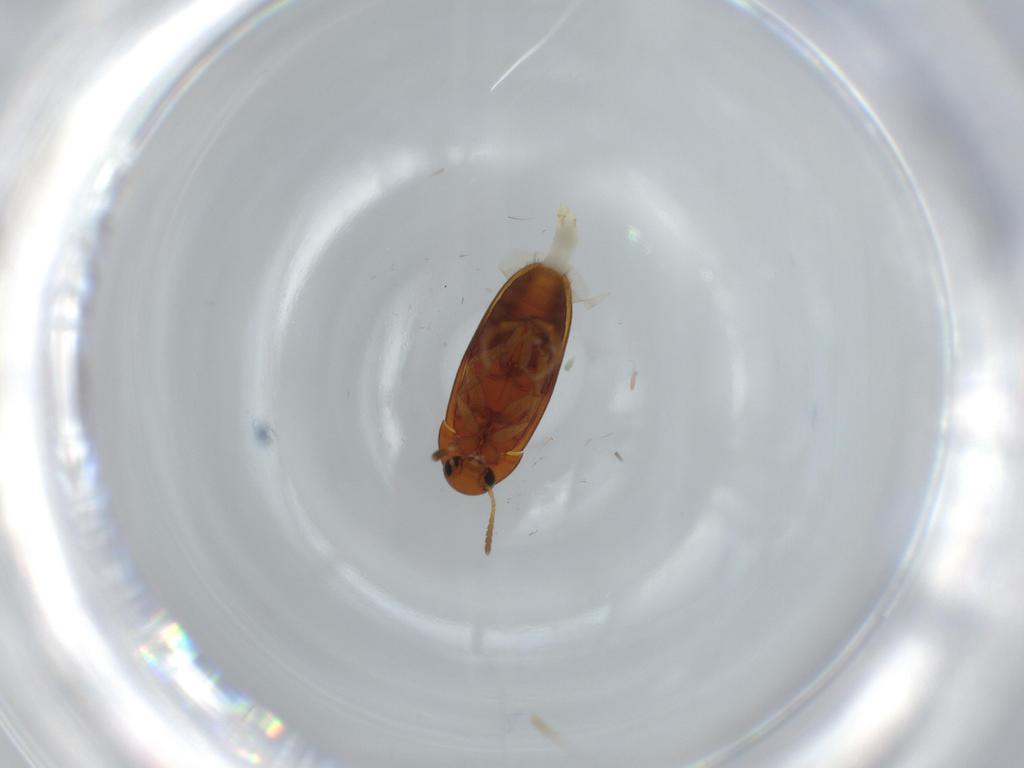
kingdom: Animalia
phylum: Arthropoda
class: Insecta
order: Coleoptera
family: Scraptiidae
